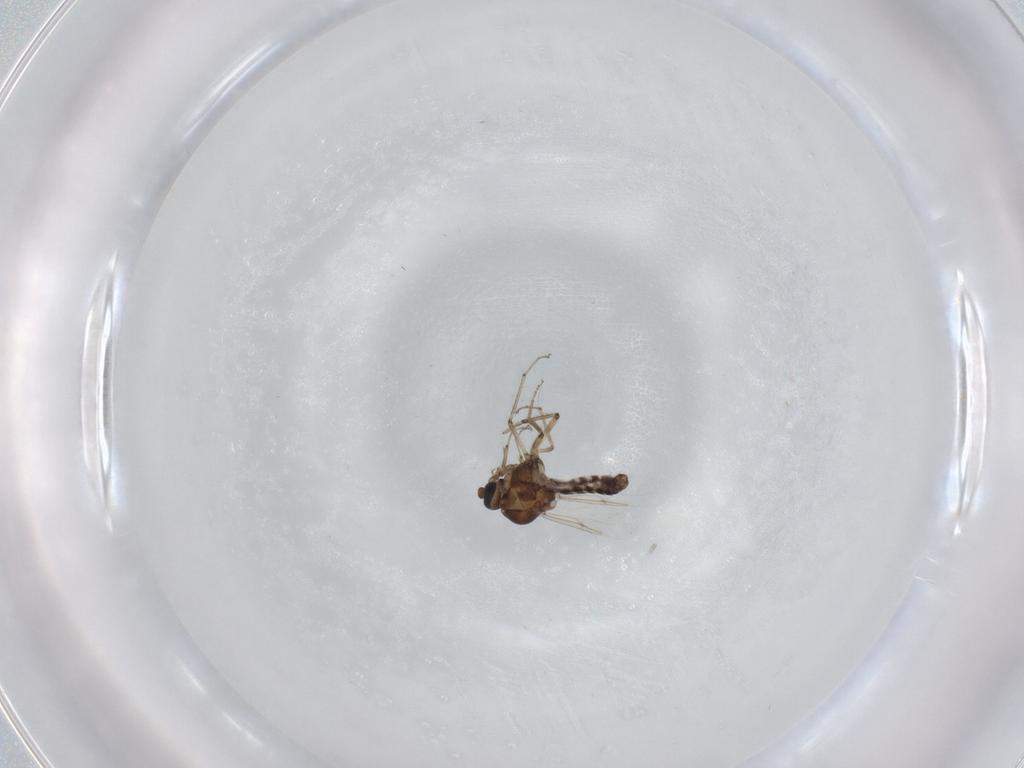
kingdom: Animalia
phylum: Arthropoda
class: Insecta
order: Diptera
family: Ceratopogonidae
